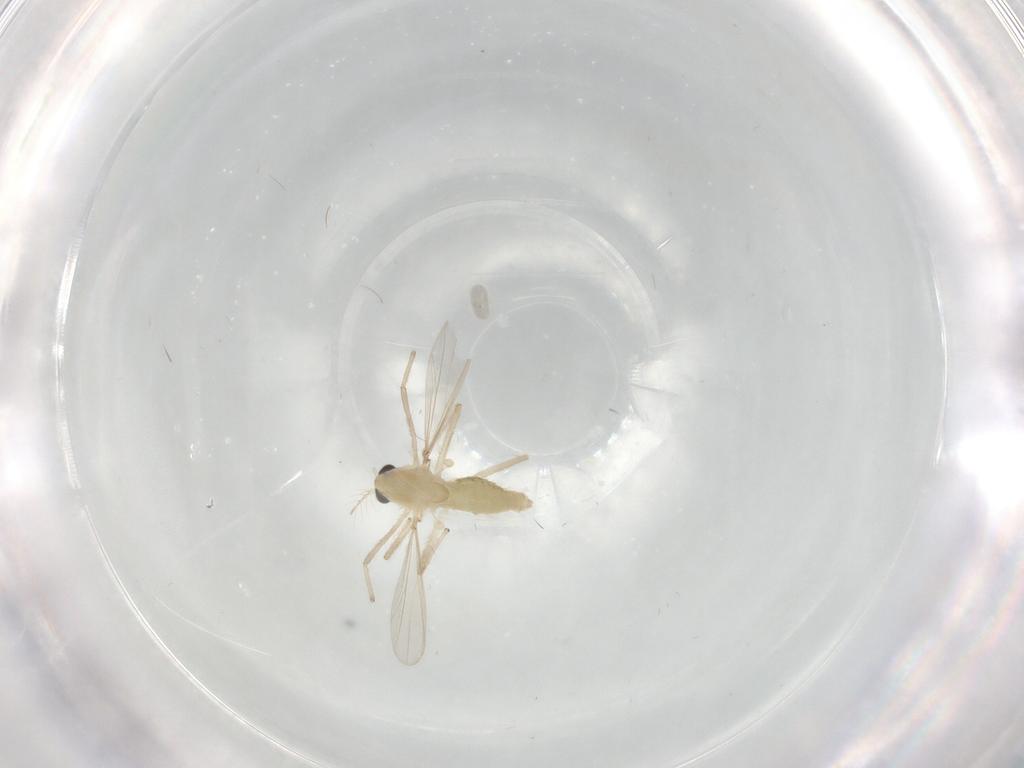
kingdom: Animalia
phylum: Arthropoda
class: Insecta
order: Diptera
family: Chironomidae
